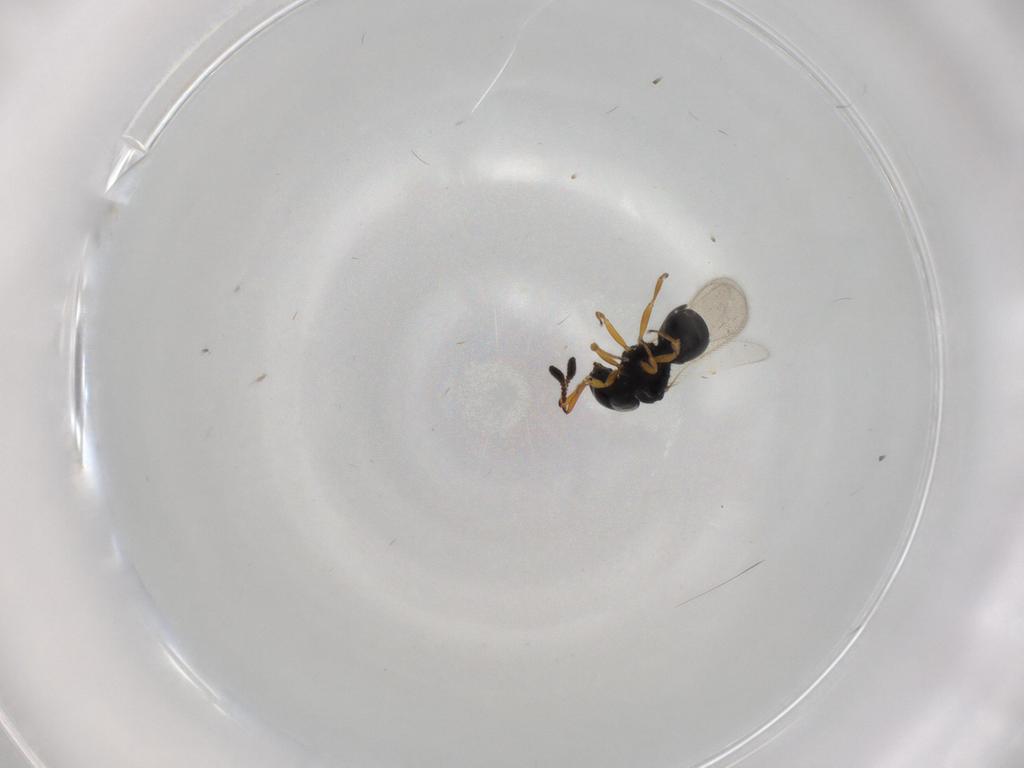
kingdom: Animalia
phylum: Arthropoda
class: Insecta
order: Hymenoptera
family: Scelionidae
